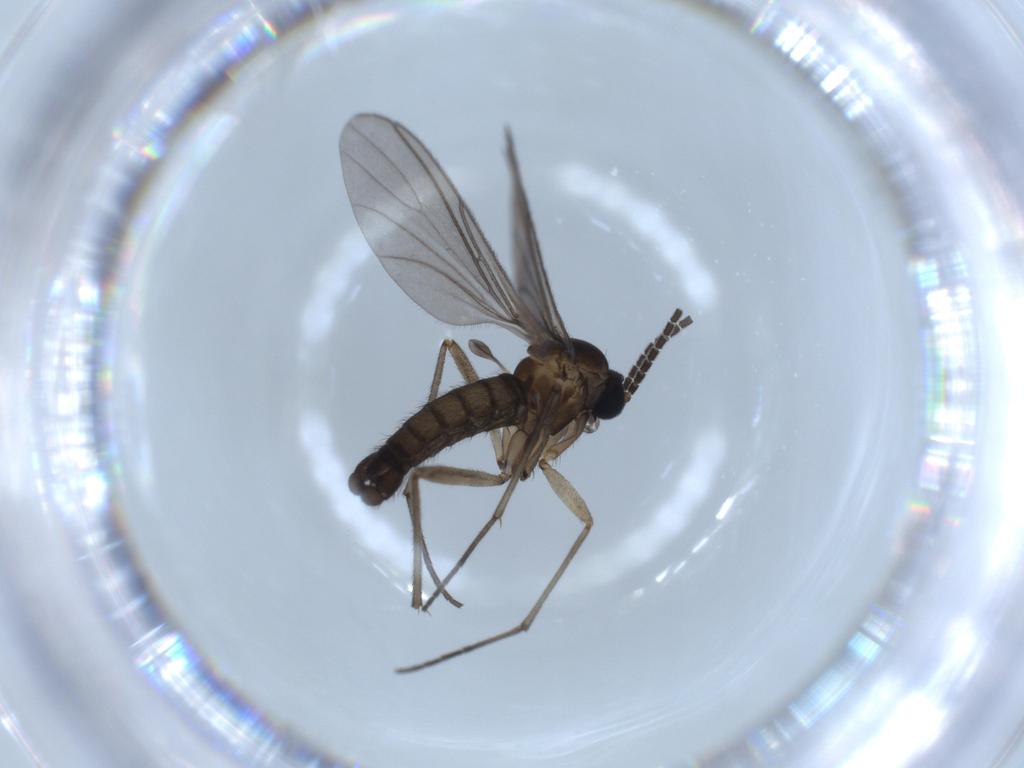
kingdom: Animalia
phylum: Arthropoda
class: Insecta
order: Diptera
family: Sciaridae
